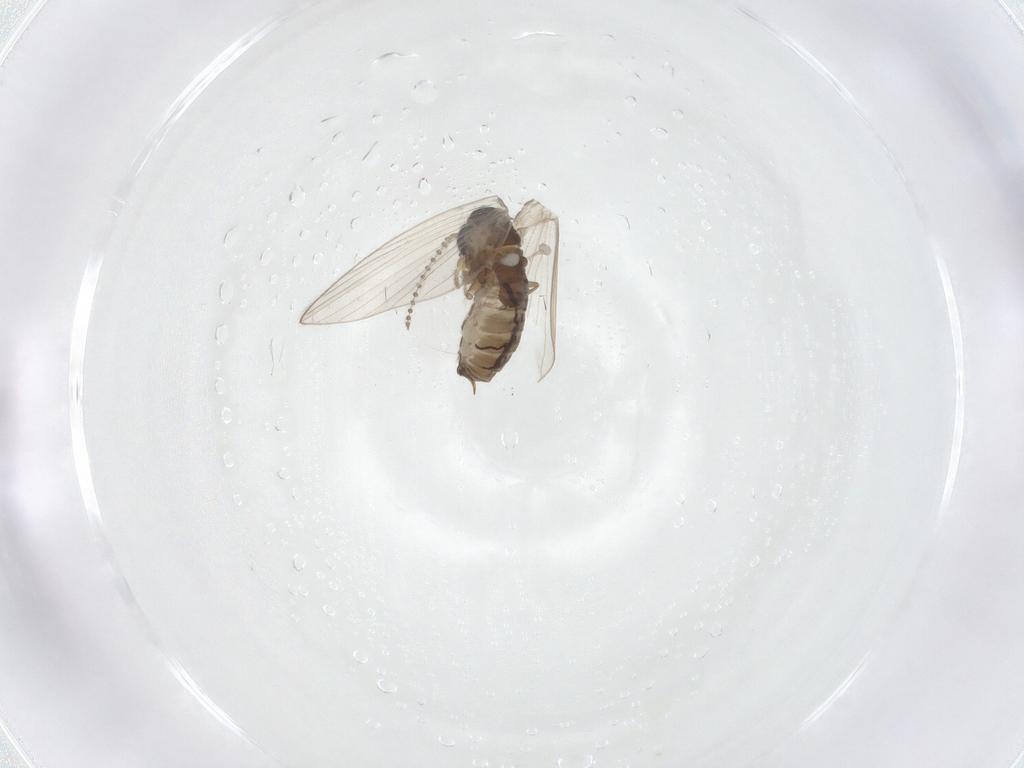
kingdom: Animalia
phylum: Arthropoda
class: Insecta
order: Diptera
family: Psychodidae
